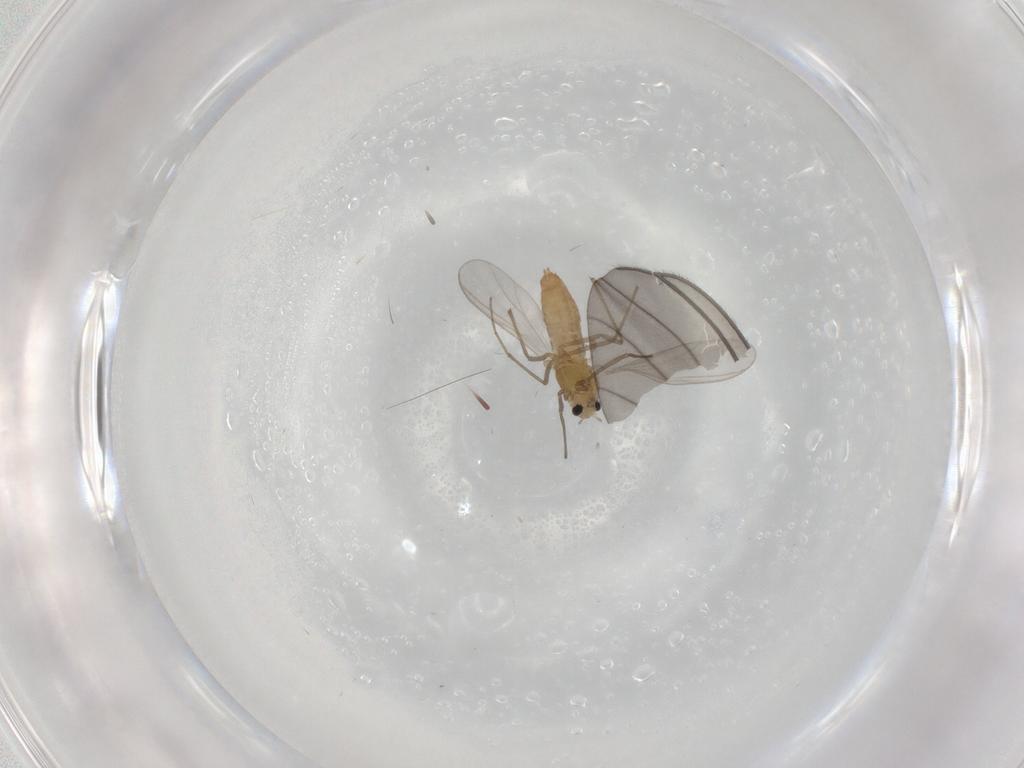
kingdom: Animalia
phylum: Arthropoda
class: Insecta
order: Diptera
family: Chironomidae
